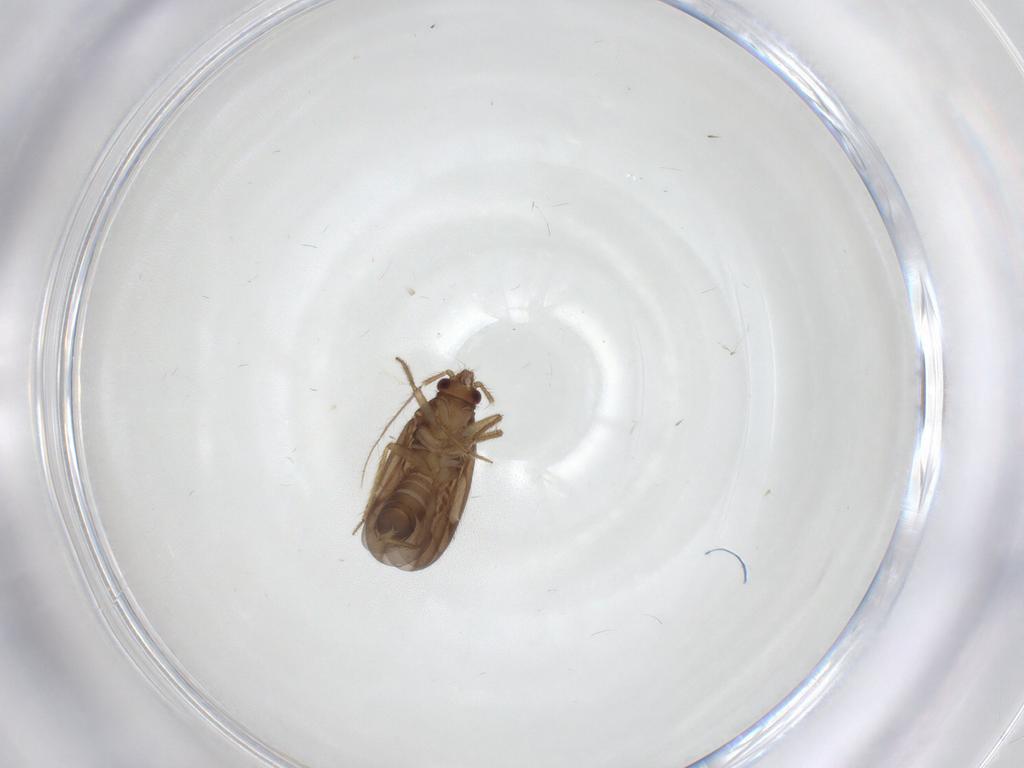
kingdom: Animalia
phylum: Arthropoda
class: Insecta
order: Hemiptera
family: Ceratocombidae
